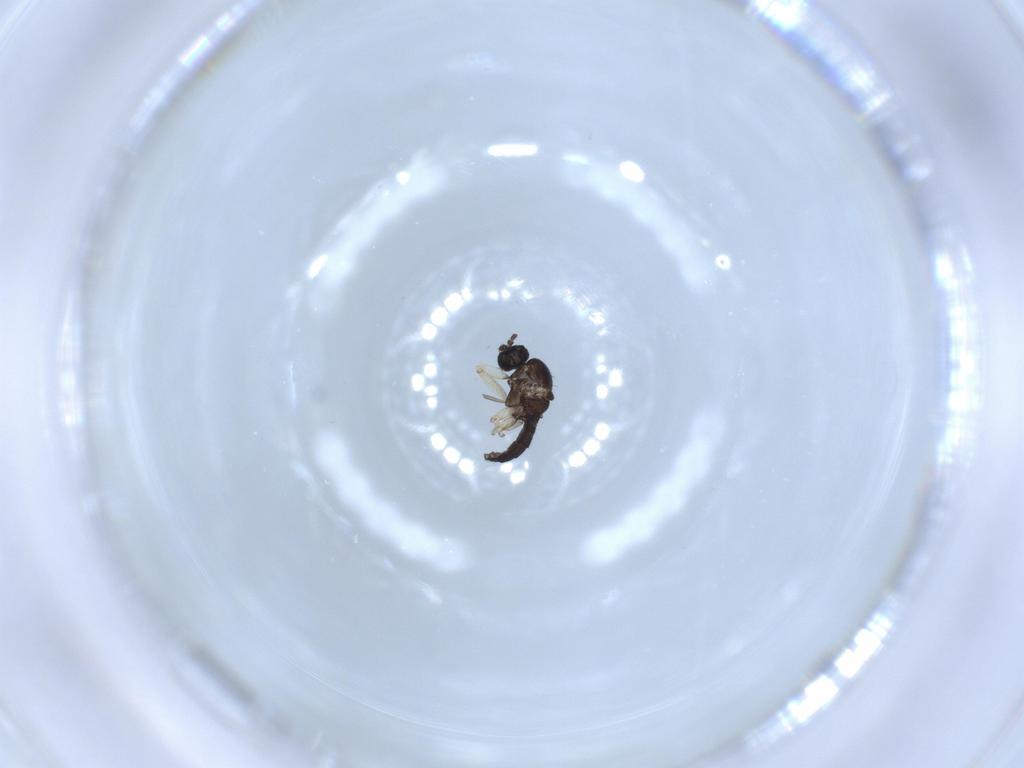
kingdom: Animalia
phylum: Arthropoda
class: Insecta
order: Diptera
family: Sciaridae
